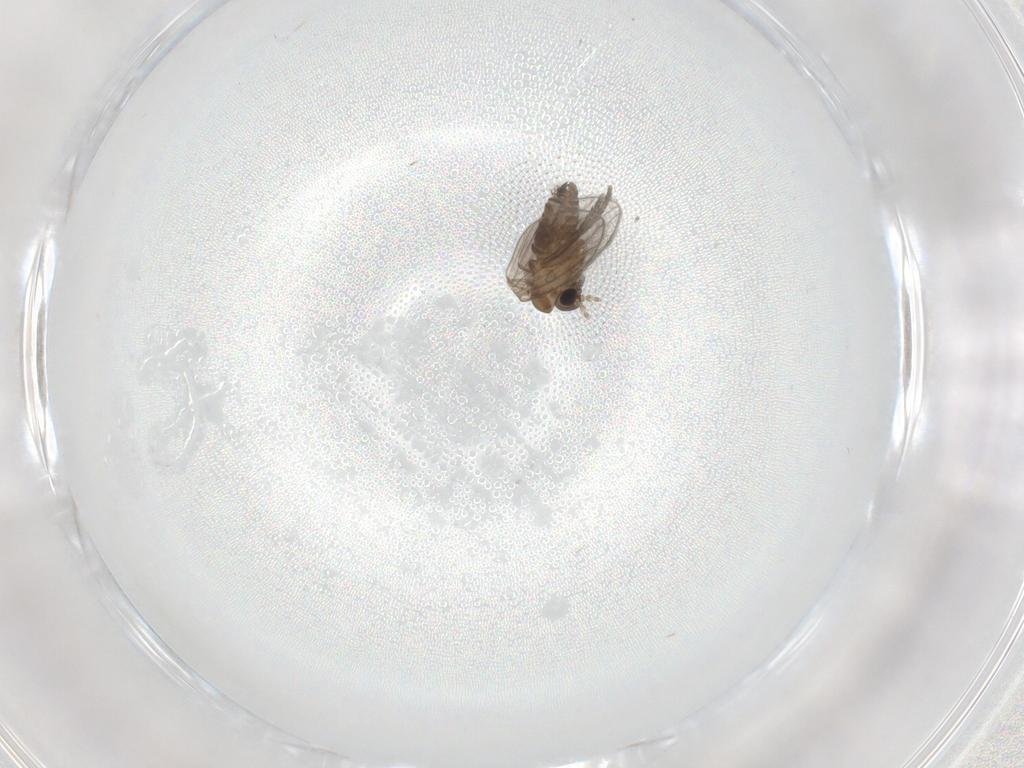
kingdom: Animalia
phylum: Arthropoda
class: Insecta
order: Diptera
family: Psychodidae
